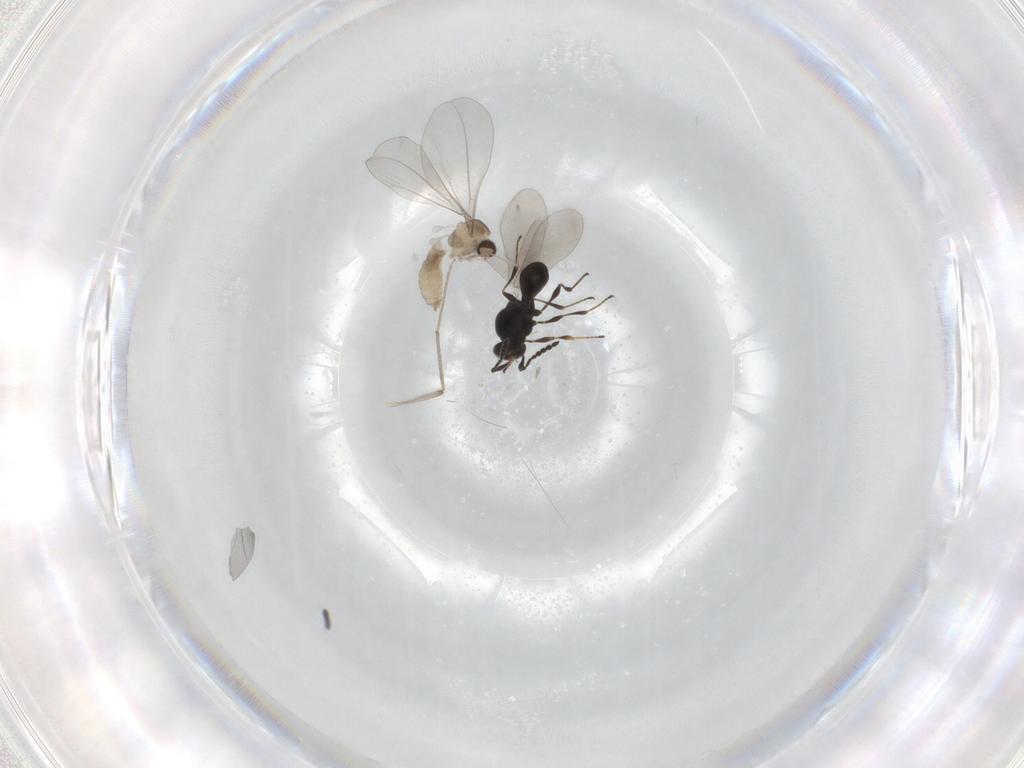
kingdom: Animalia
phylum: Arthropoda
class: Insecta
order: Hymenoptera
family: Platygastridae
